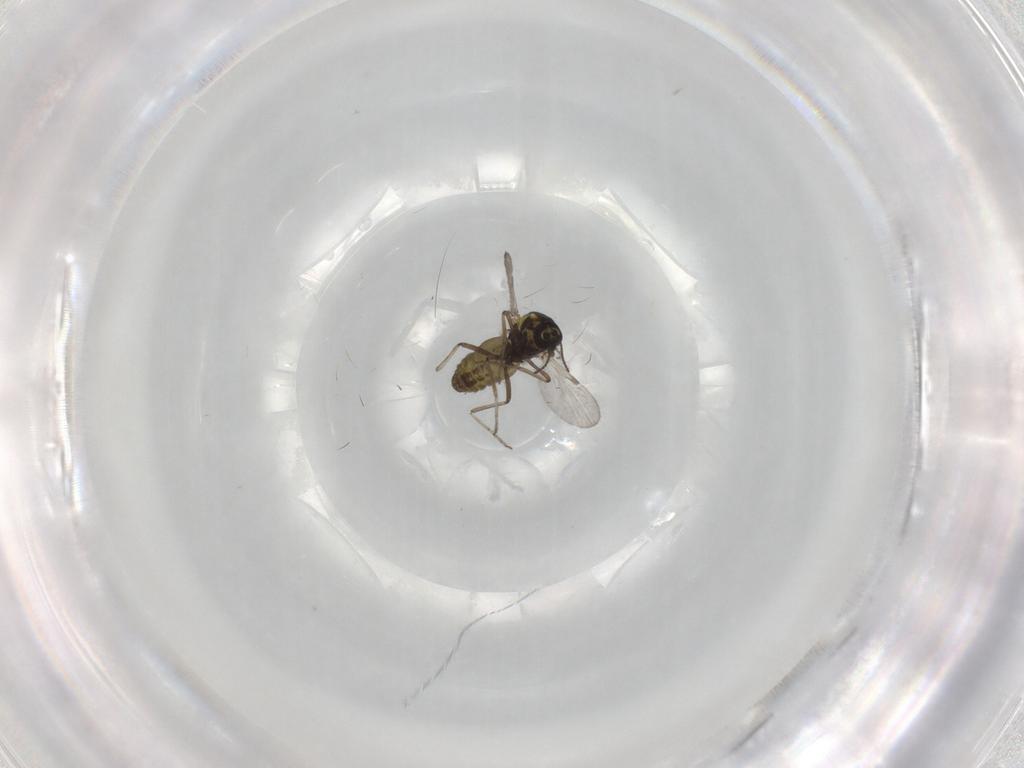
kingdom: Animalia
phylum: Arthropoda
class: Insecta
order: Diptera
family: Ceratopogonidae
